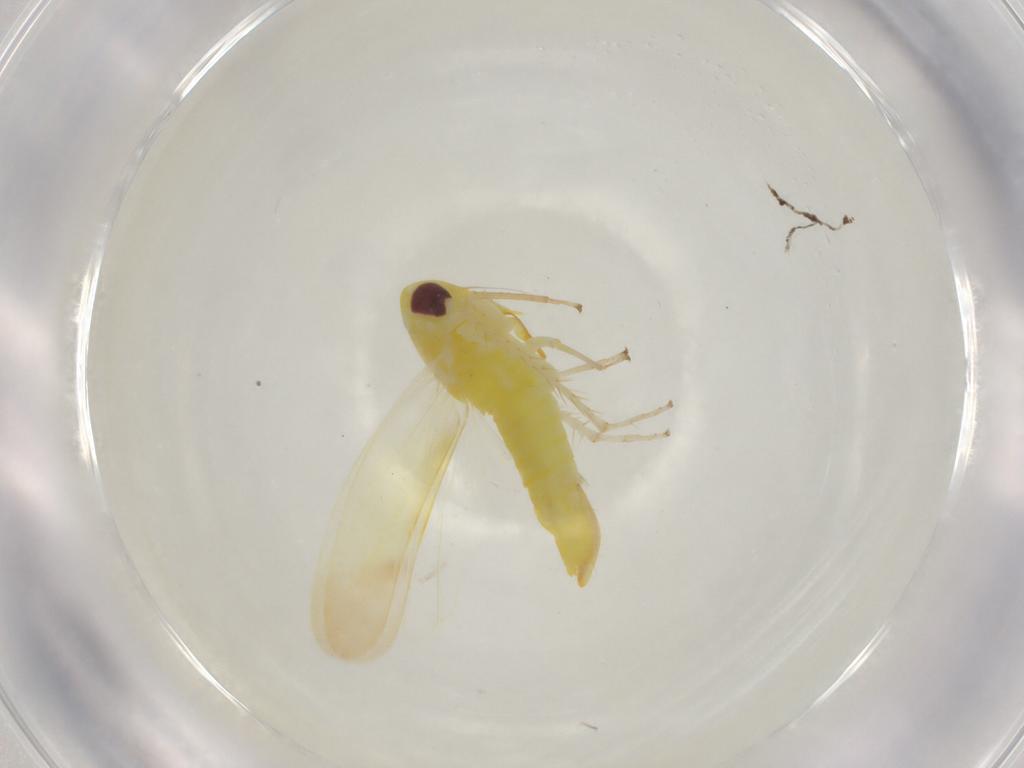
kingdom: Animalia
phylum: Arthropoda
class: Insecta
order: Hemiptera
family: Cicadellidae
